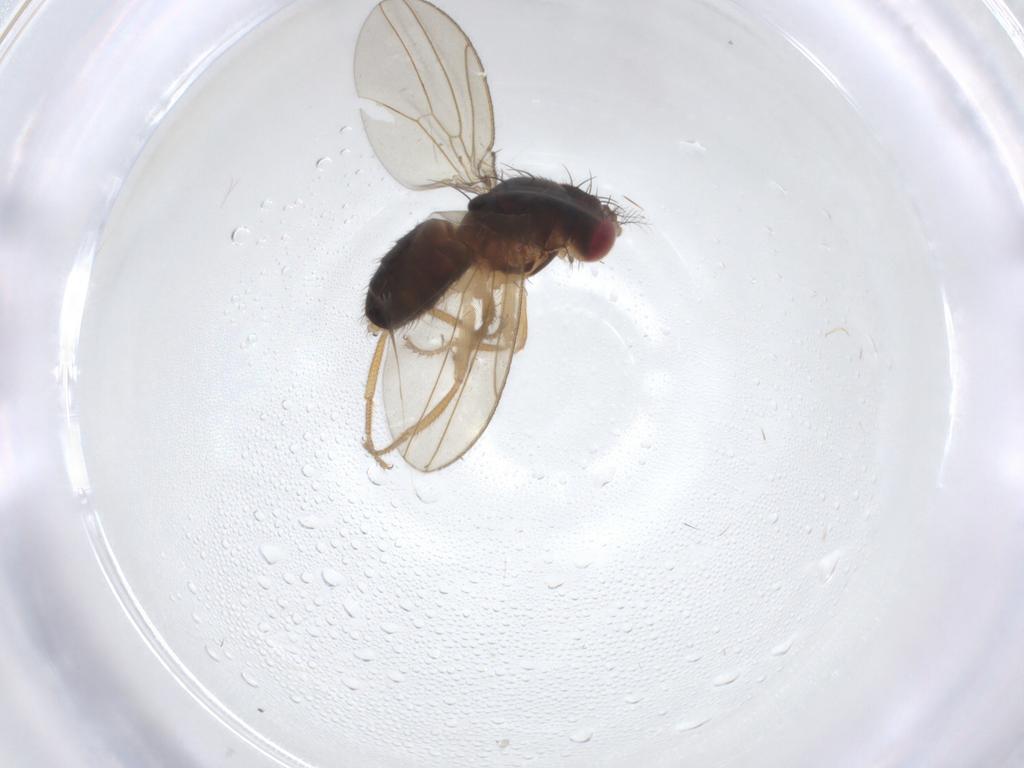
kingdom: Animalia
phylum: Arthropoda
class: Insecta
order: Diptera
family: Drosophilidae
